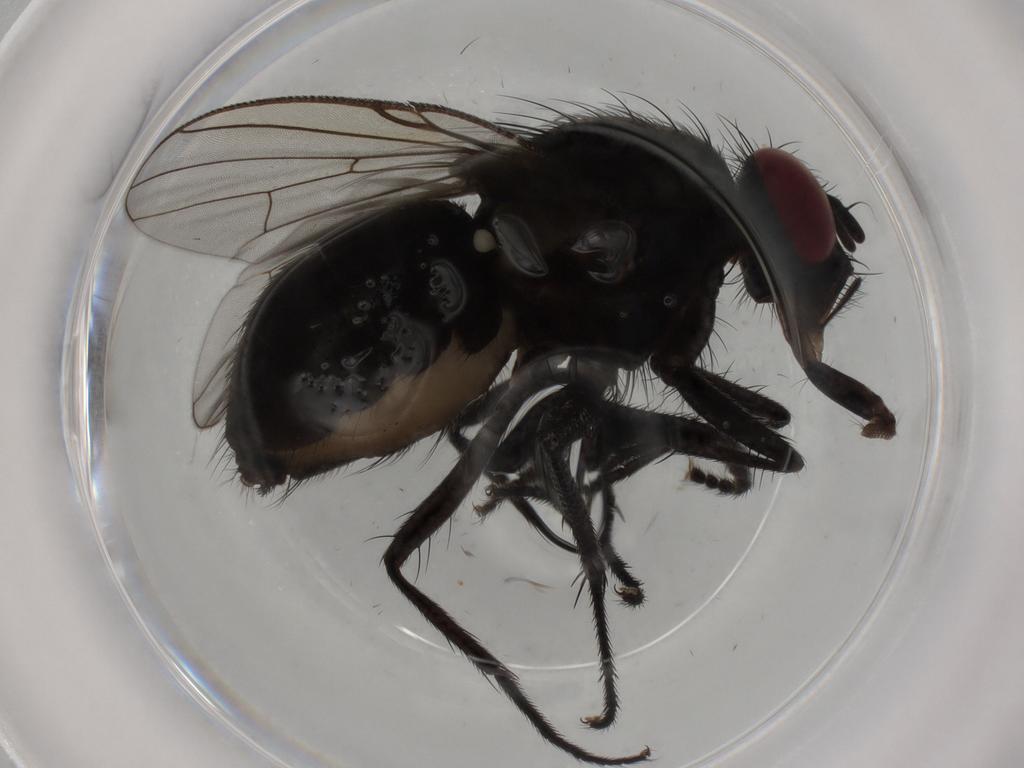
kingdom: Animalia
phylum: Arthropoda
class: Insecta
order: Diptera
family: Muscidae
